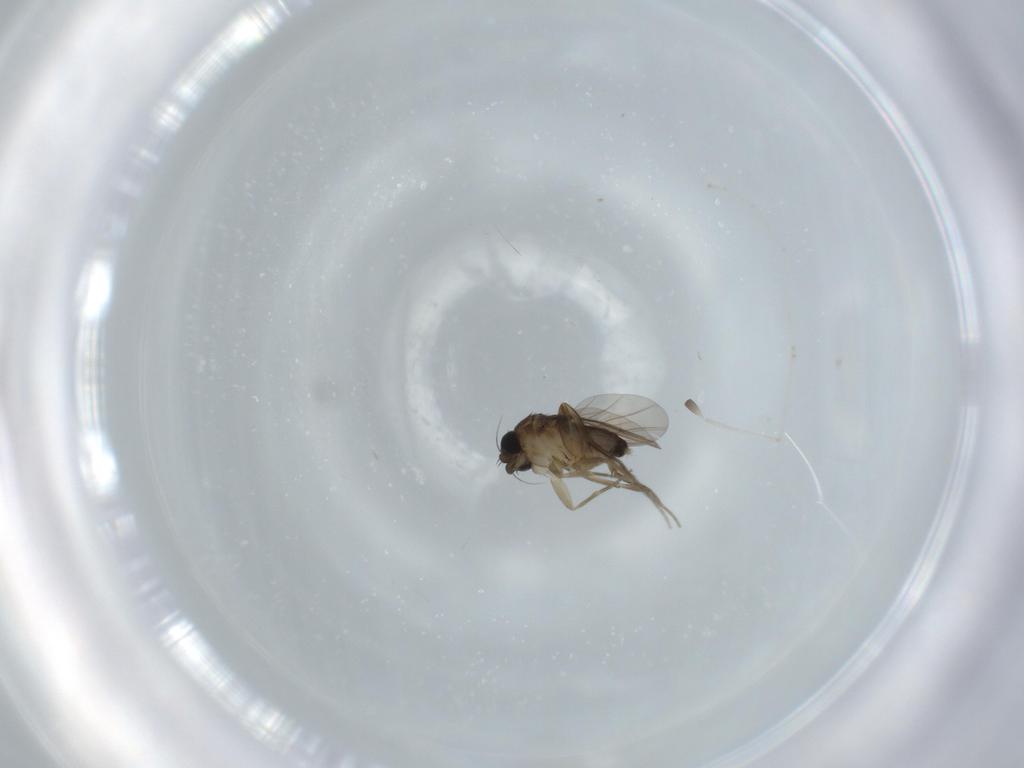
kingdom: Animalia
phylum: Arthropoda
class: Insecta
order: Diptera
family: Phoridae
